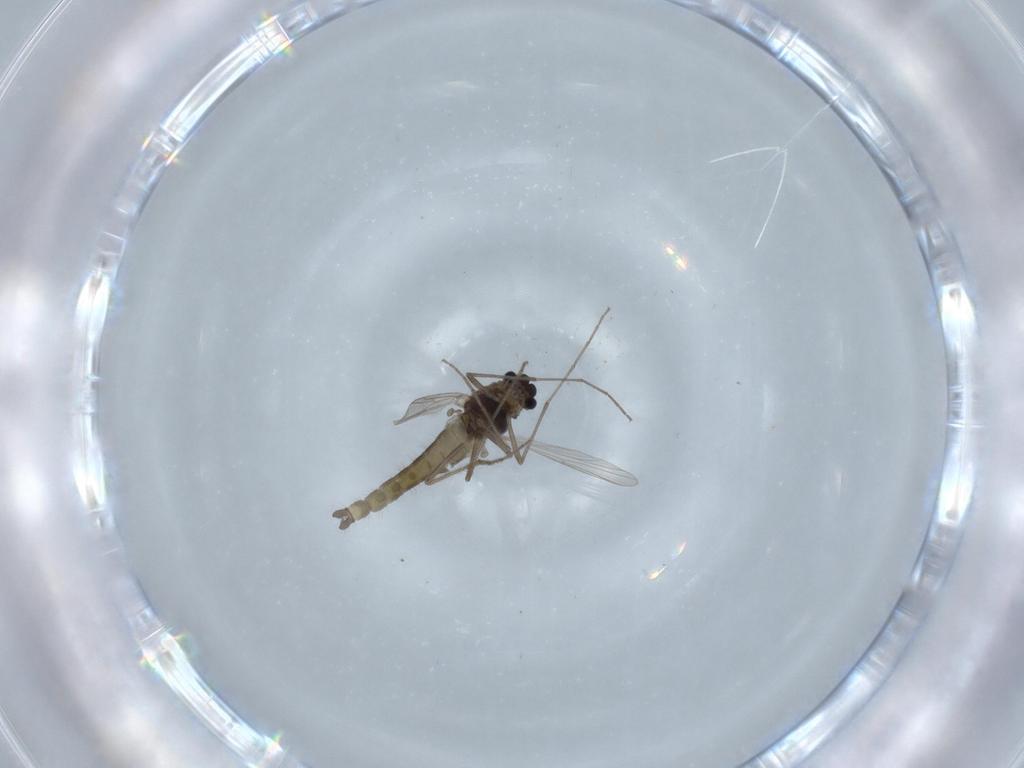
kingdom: Animalia
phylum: Arthropoda
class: Insecta
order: Diptera
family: Chironomidae
